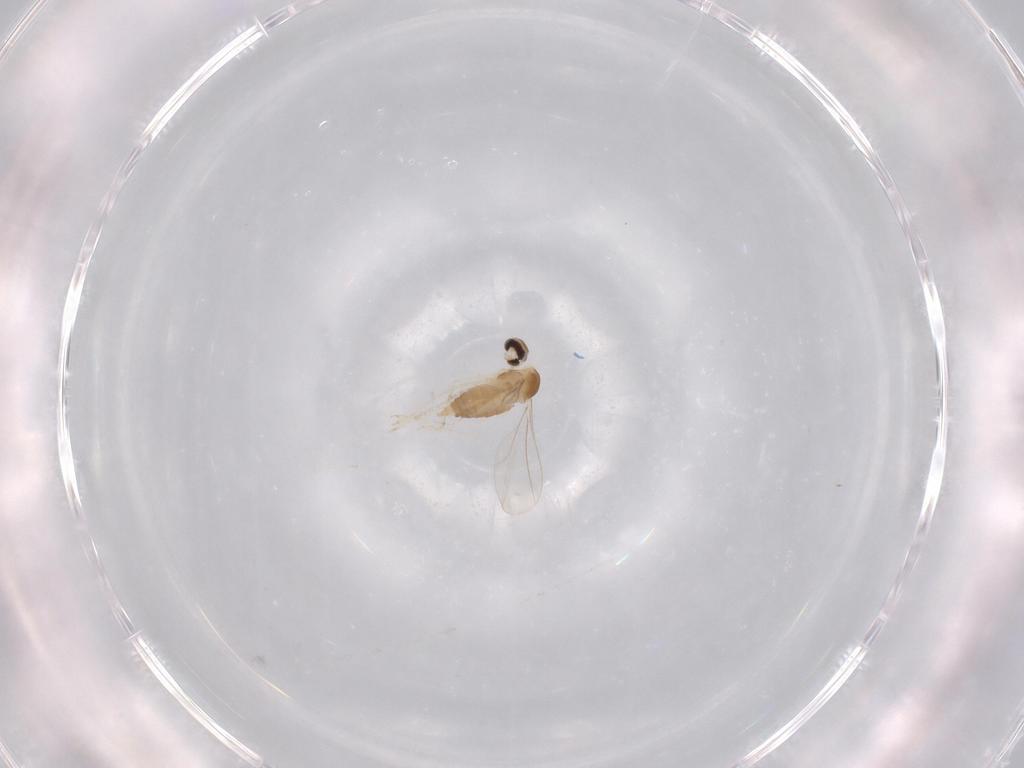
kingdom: Animalia
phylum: Arthropoda
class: Insecta
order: Diptera
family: Cecidomyiidae
